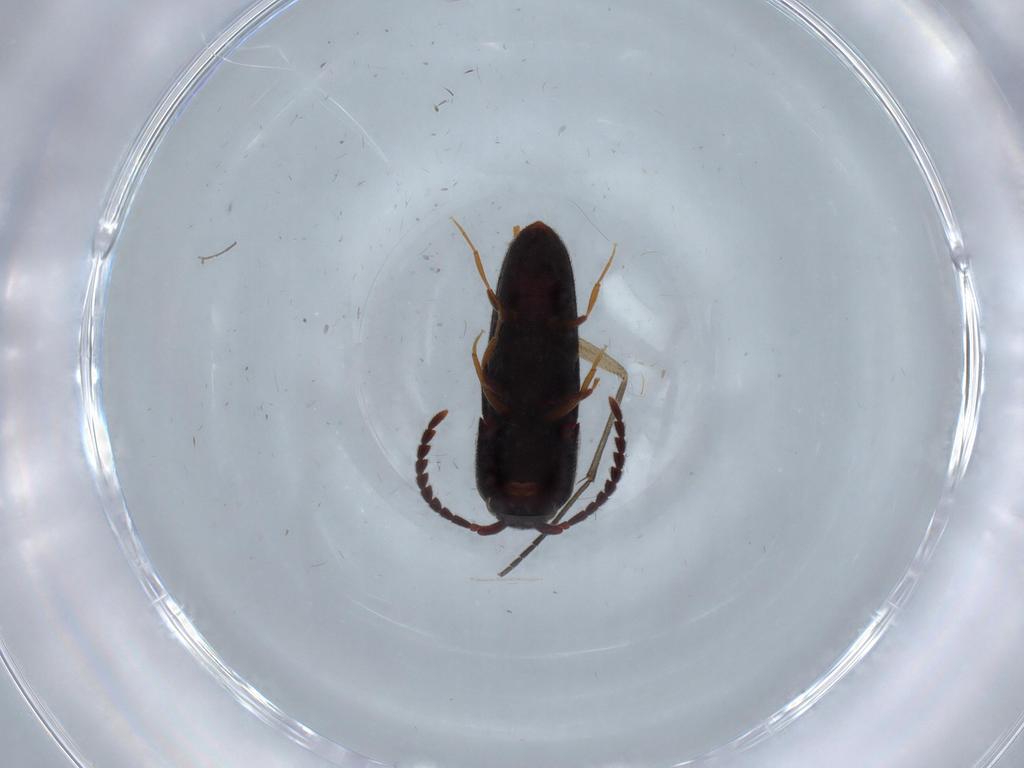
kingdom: Animalia
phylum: Arthropoda
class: Insecta
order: Coleoptera
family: Eucnemidae
